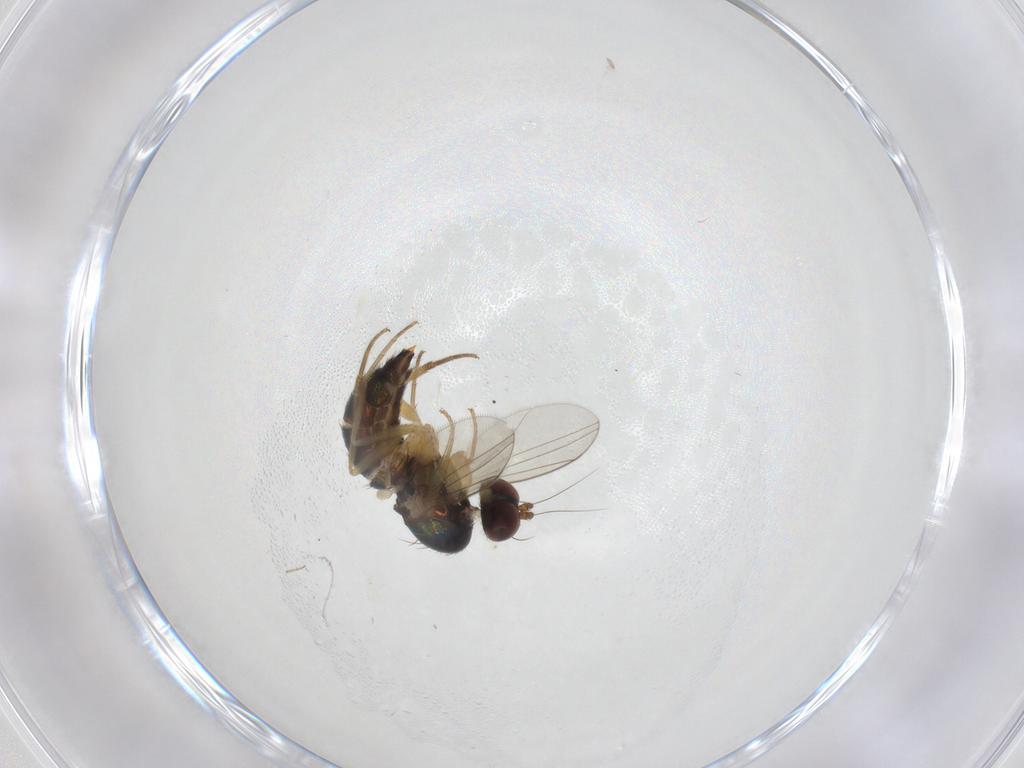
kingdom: Animalia
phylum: Arthropoda
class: Insecta
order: Diptera
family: Dolichopodidae
